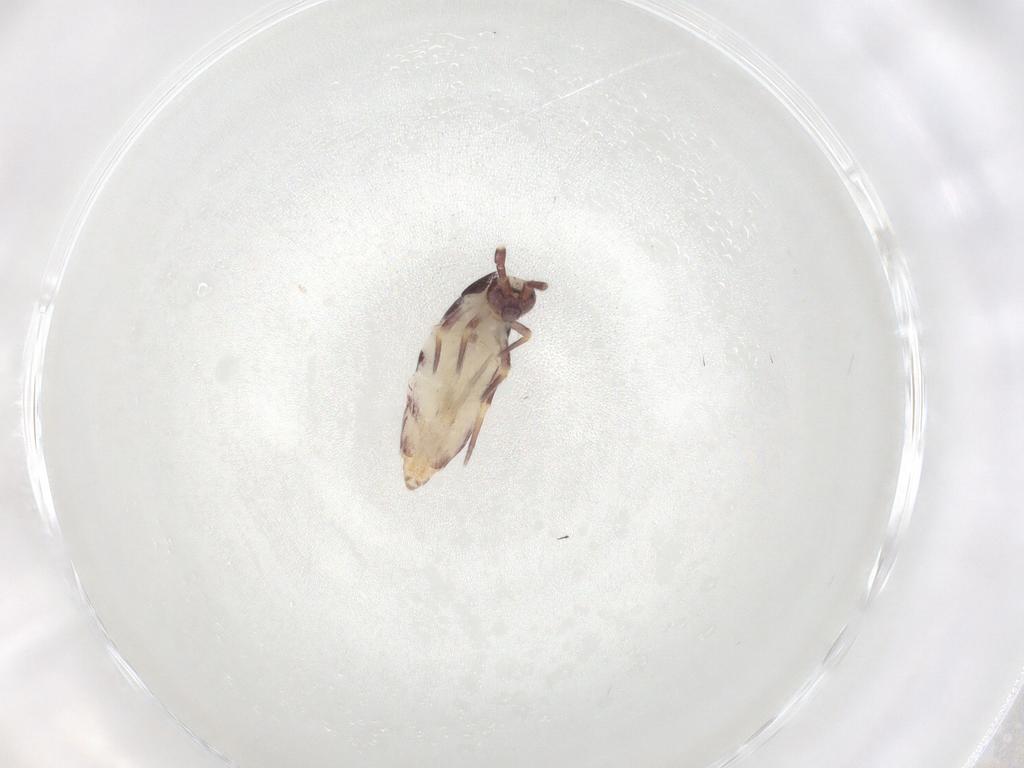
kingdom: Animalia
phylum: Arthropoda
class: Collembola
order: Entomobryomorpha
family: Entomobryidae
